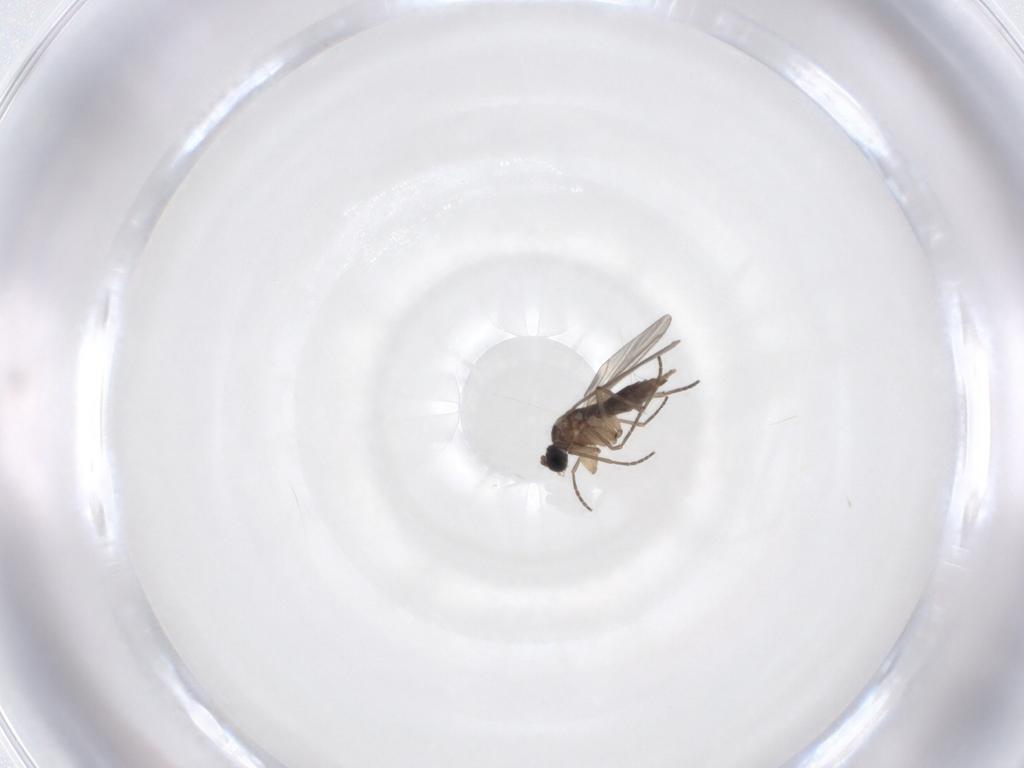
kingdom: Animalia
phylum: Arthropoda
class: Insecta
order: Diptera
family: Sciaridae
